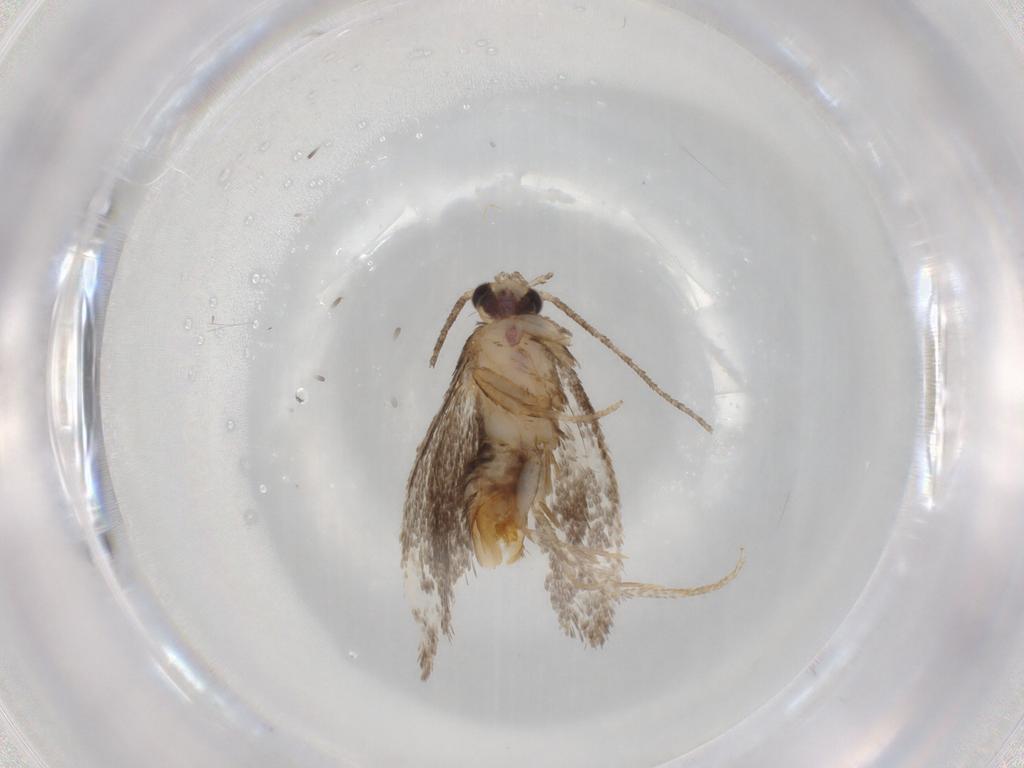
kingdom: Animalia
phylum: Arthropoda
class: Insecta
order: Lepidoptera
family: Tineidae
